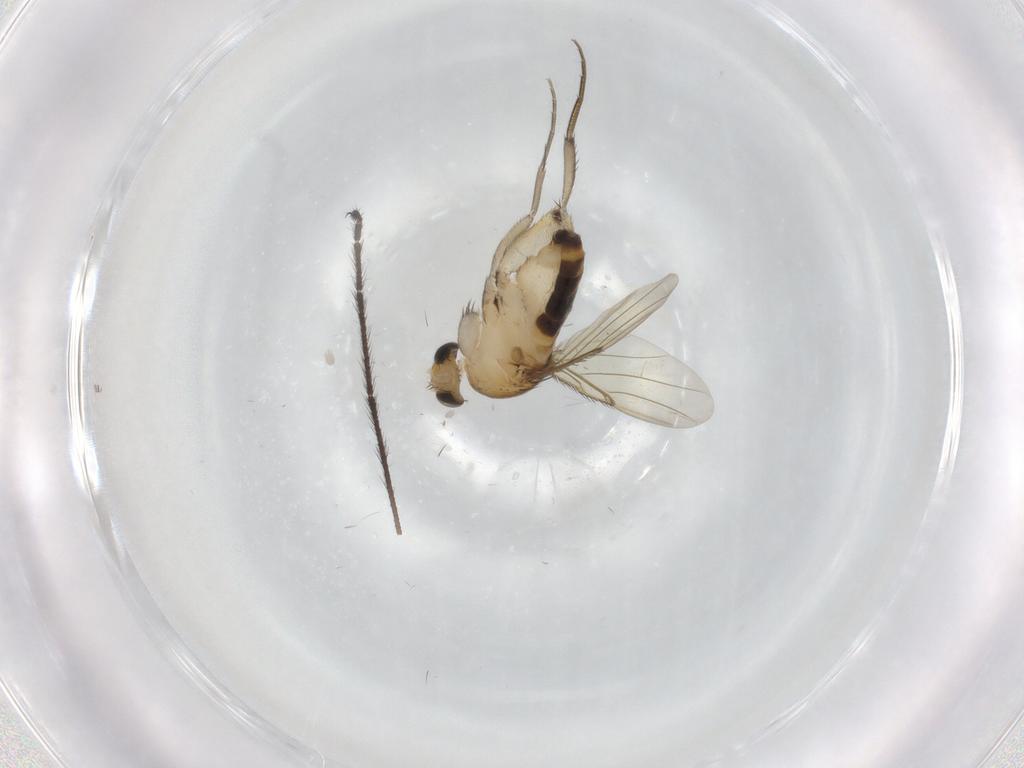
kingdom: Animalia
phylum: Arthropoda
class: Insecta
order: Diptera
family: Phoridae
